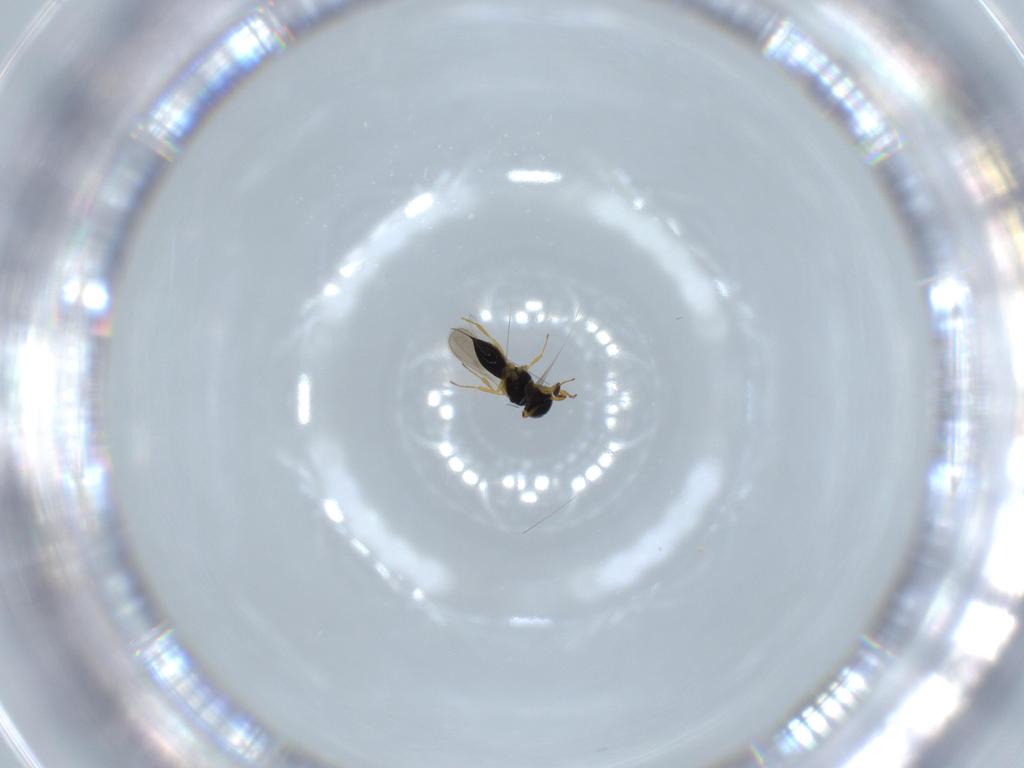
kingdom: Animalia
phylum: Arthropoda
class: Insecta
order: Hymenoptera
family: Scelionidae
